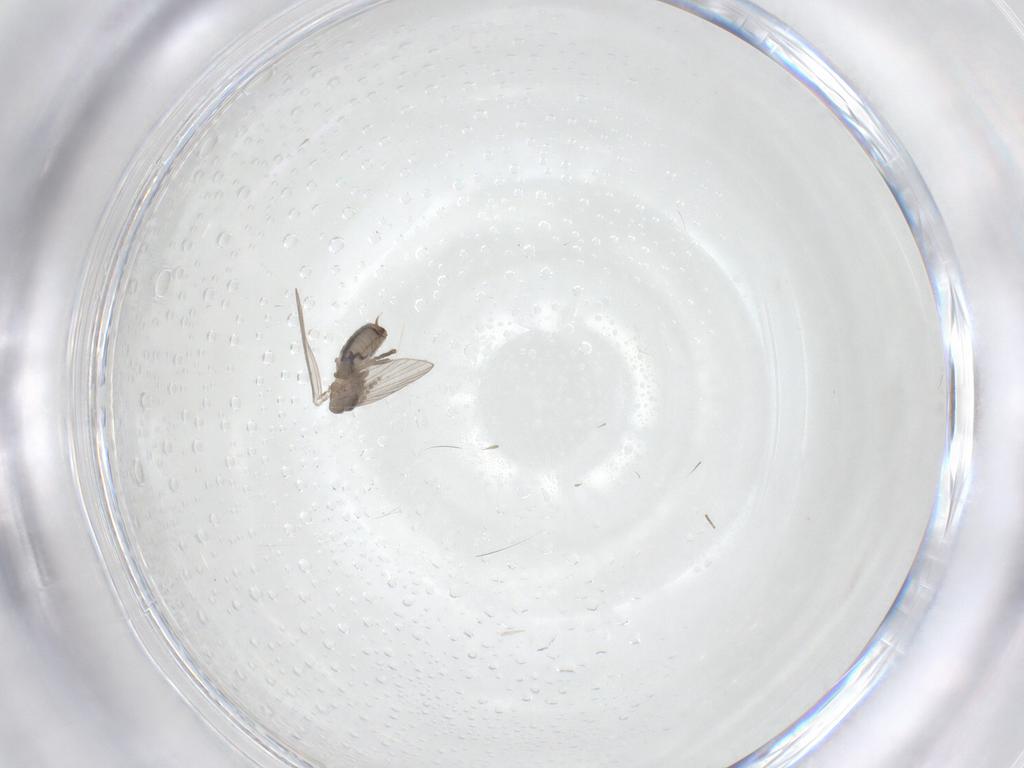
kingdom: Animalia
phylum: Arthropoda
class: Insecta
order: Diptera
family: Psychodidae
